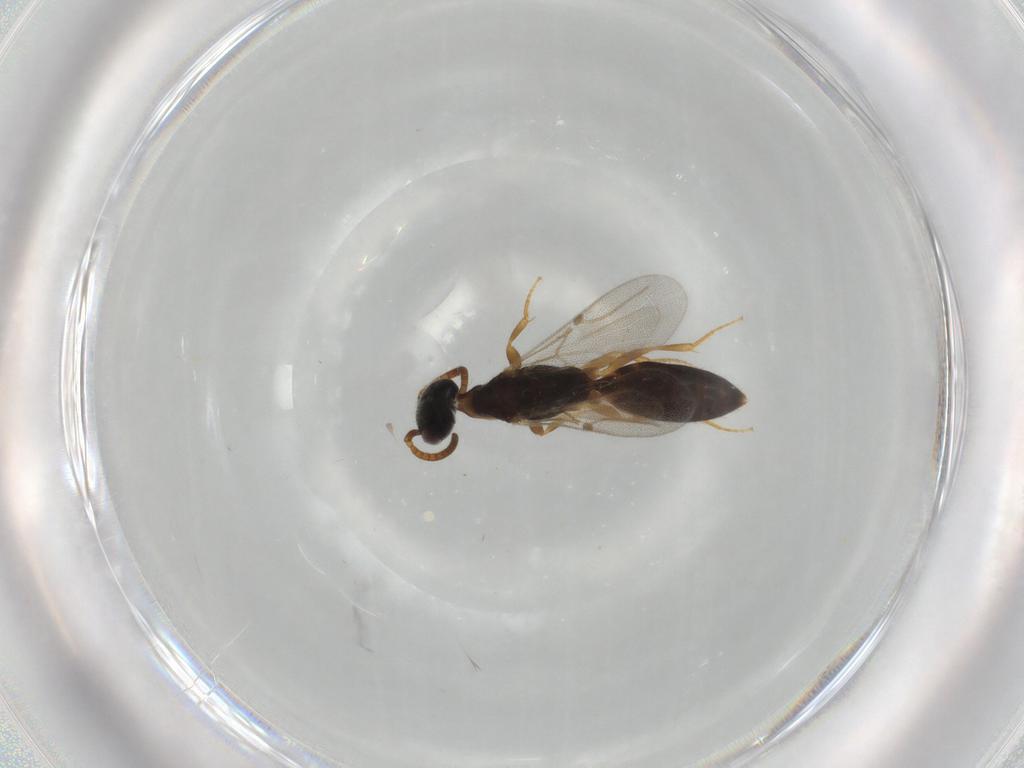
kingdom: Animalia
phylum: Arthropoda
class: Insecta
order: Hymenoptera
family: Bethylidae
